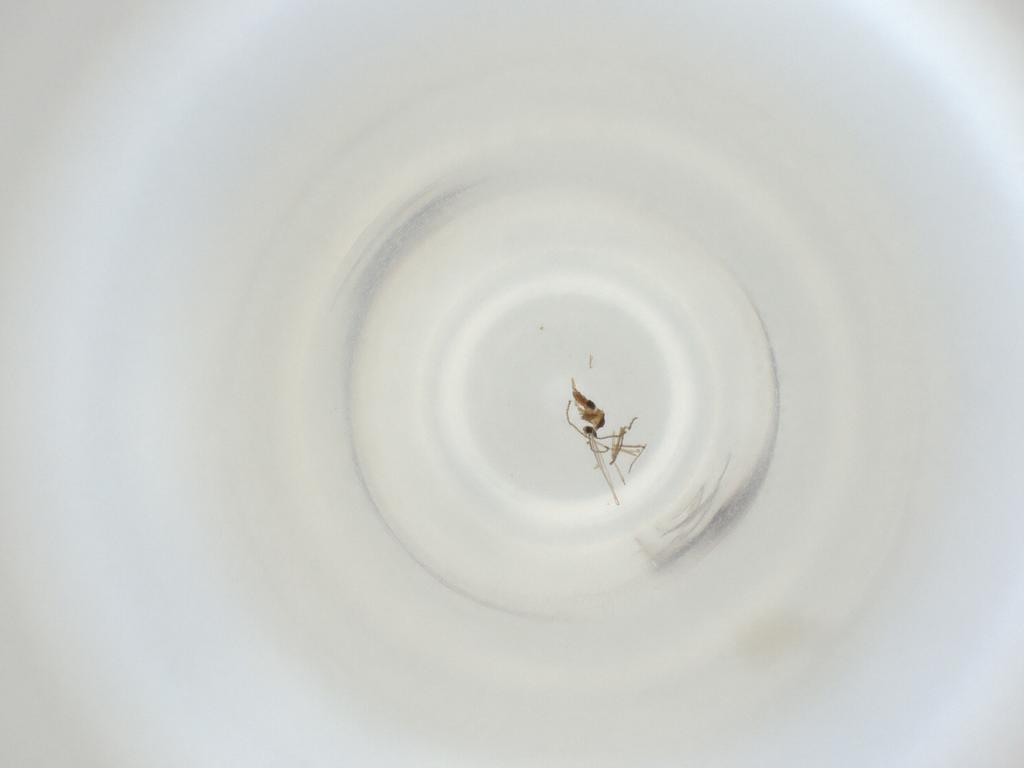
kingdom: Animalia
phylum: Arthropoda
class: Insecta
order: Diptera
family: Cecidomyiidae
